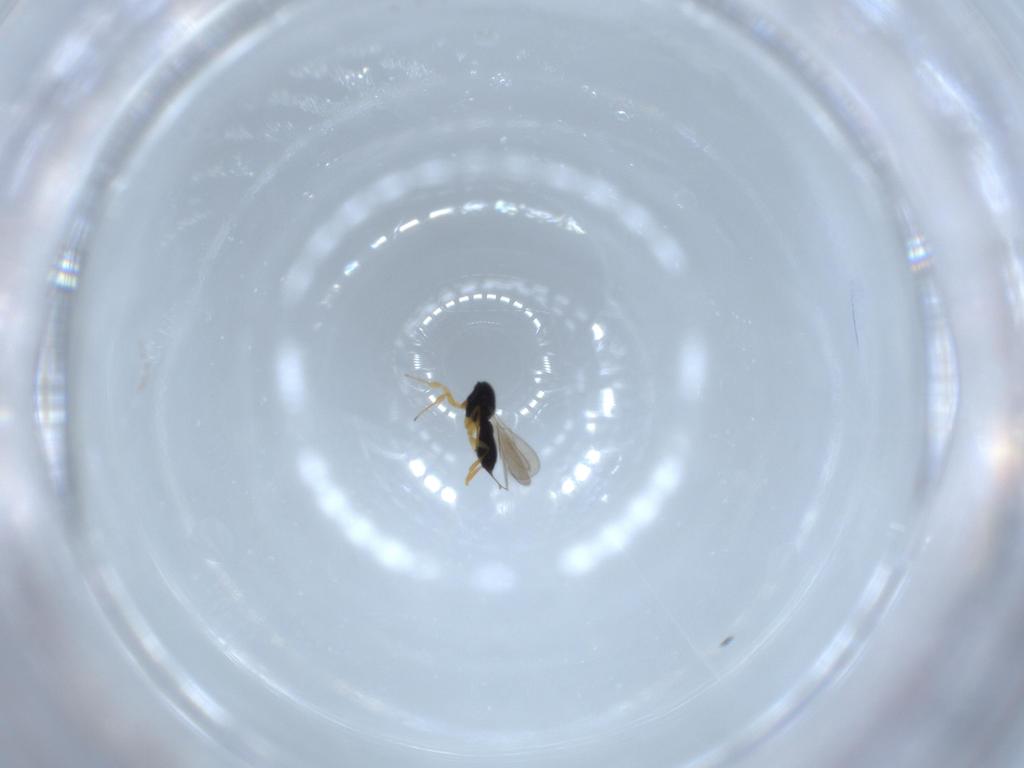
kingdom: Animalia
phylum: Arthropoda
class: Insecta
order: Hymenoptera
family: Scelionidae
